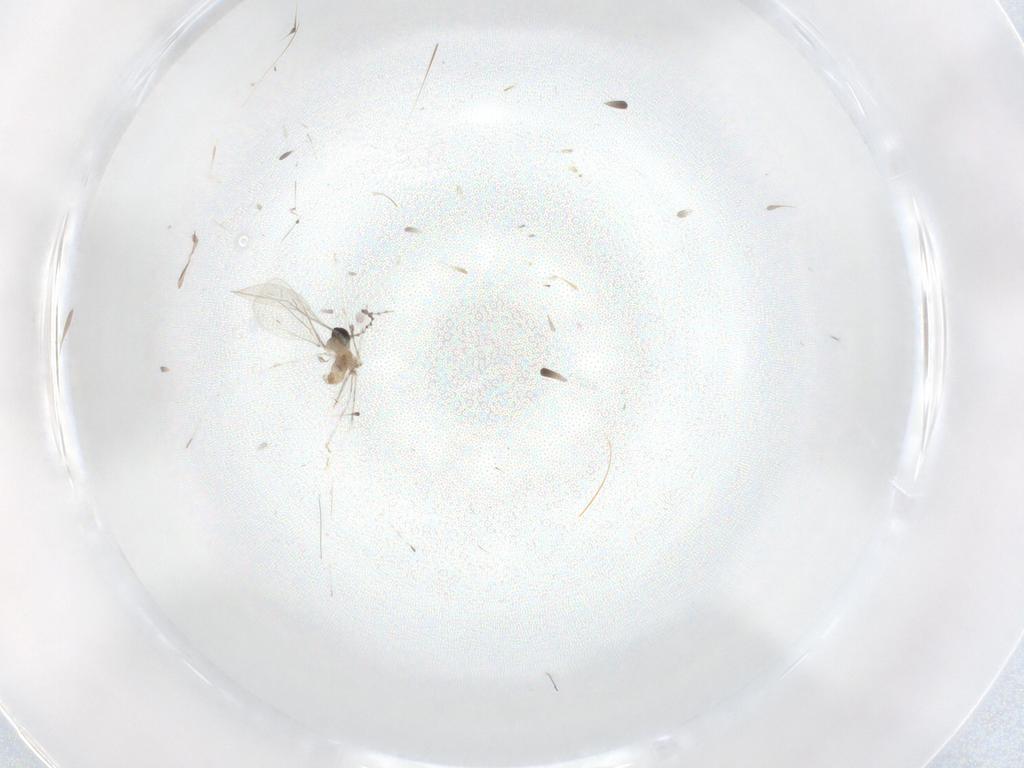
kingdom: Animalia
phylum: Arthropoda
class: Insecta
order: Diptera
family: Cecidomyiidae
